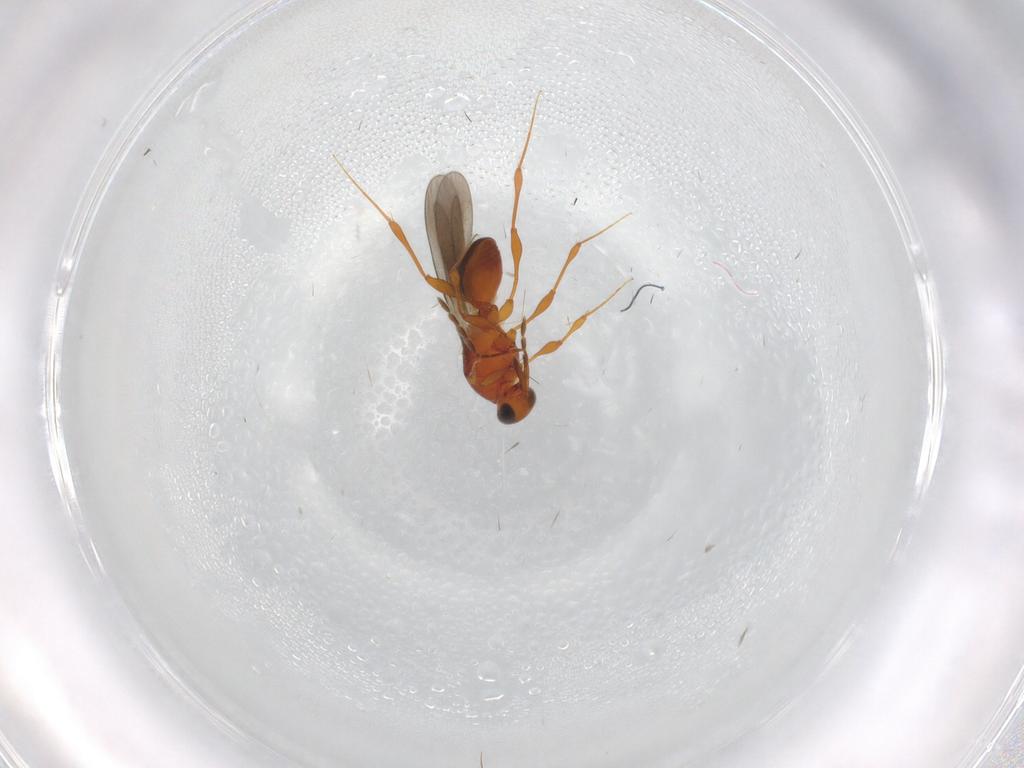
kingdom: Animalia
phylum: Arthropoda
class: Insecta
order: Hymenoptera
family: Platygastridae
